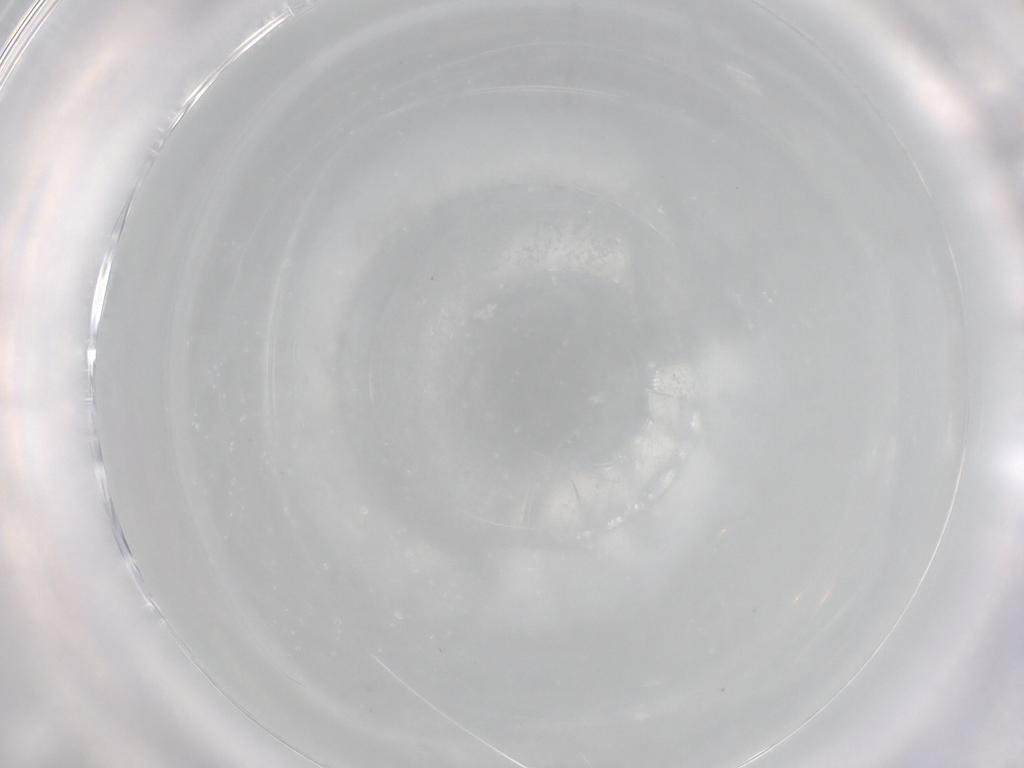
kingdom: Animalia
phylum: Arthropoda
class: Insecta
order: Diptera
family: Chironomidae
